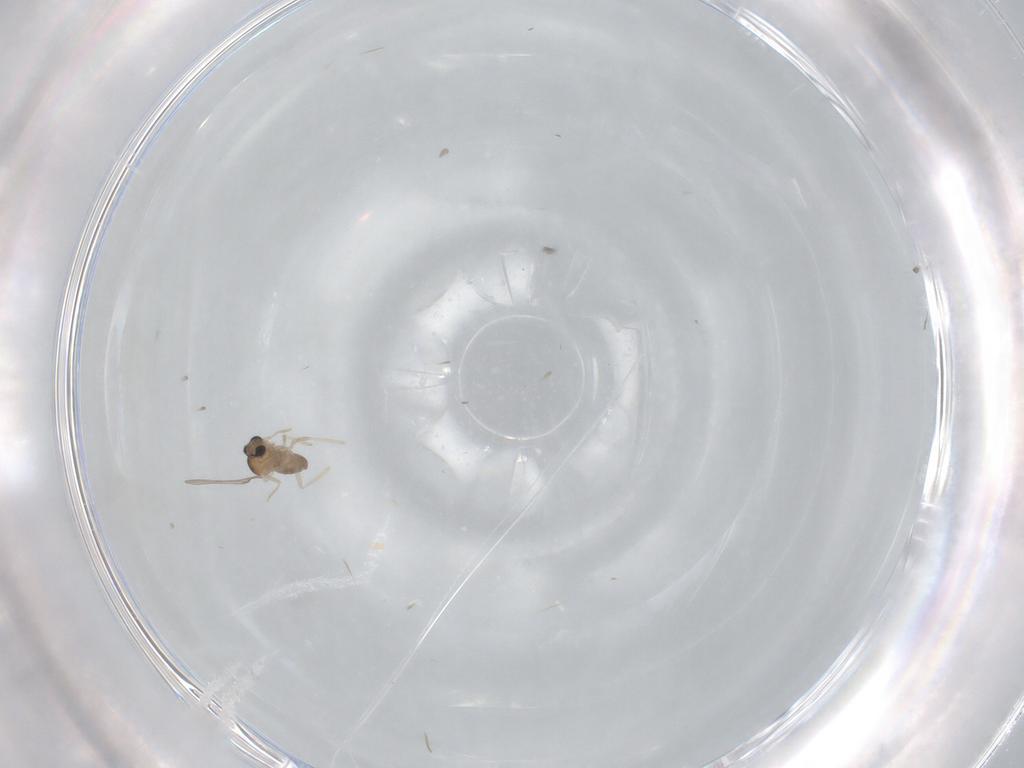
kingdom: Animalia
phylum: Arthropoda
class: Insecta
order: Diptera
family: Cecidomyiidae
